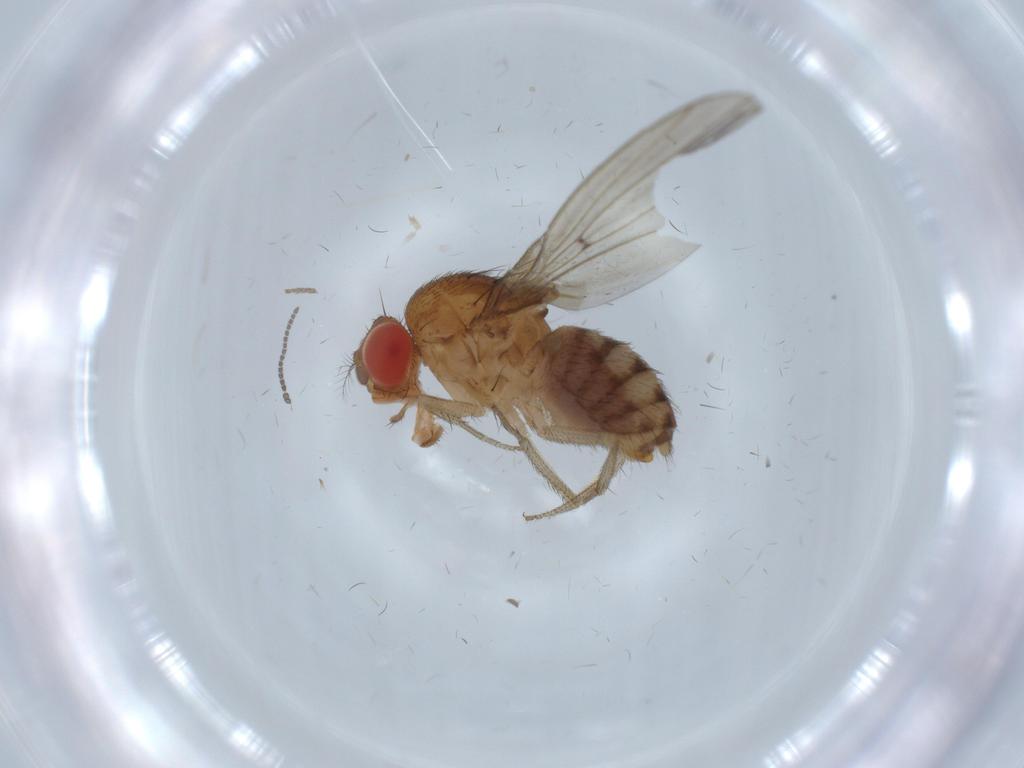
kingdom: Animalia
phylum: Arthropoda
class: Insecta
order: Diptera
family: Drosophilidae
